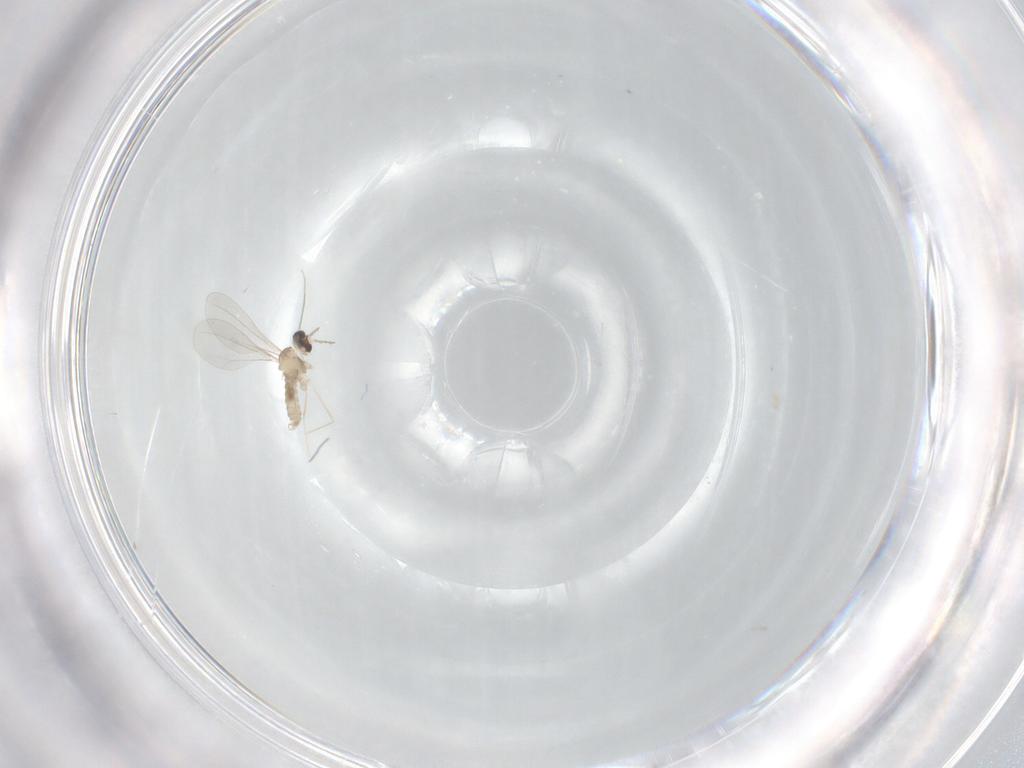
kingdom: Animalia
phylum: Arthropoda
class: Insecta
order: Diptera
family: Cecidomyiidae
